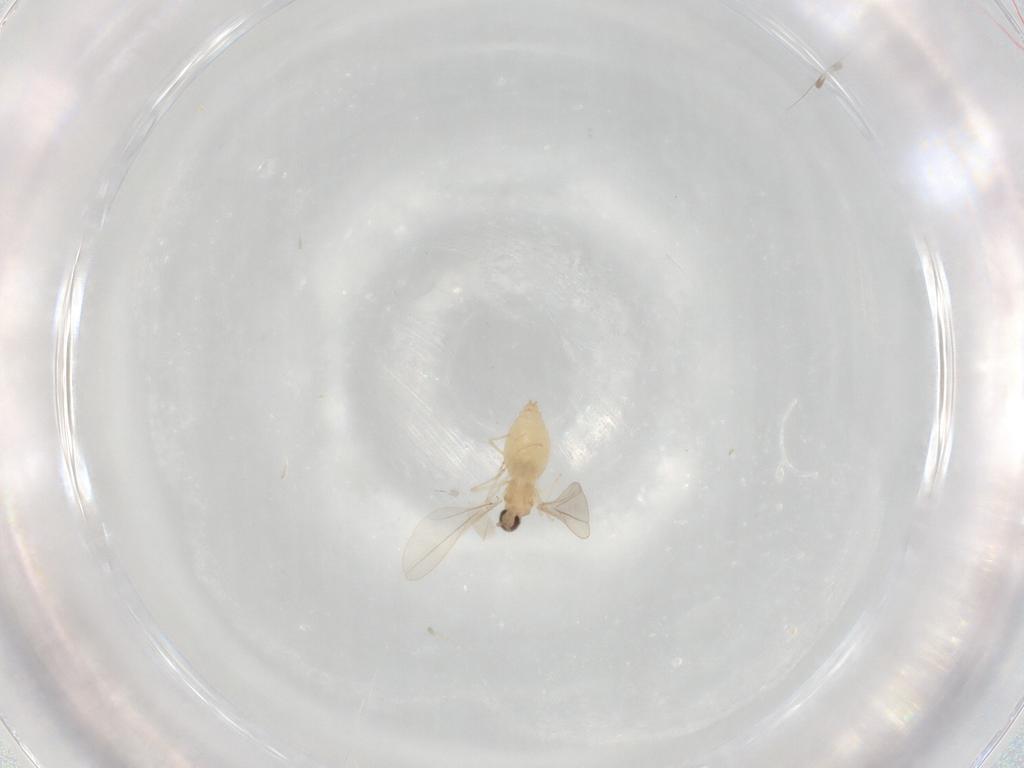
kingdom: Animalia
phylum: Arthropoda
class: Insecta
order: Diptera
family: Cecidomyiidae
